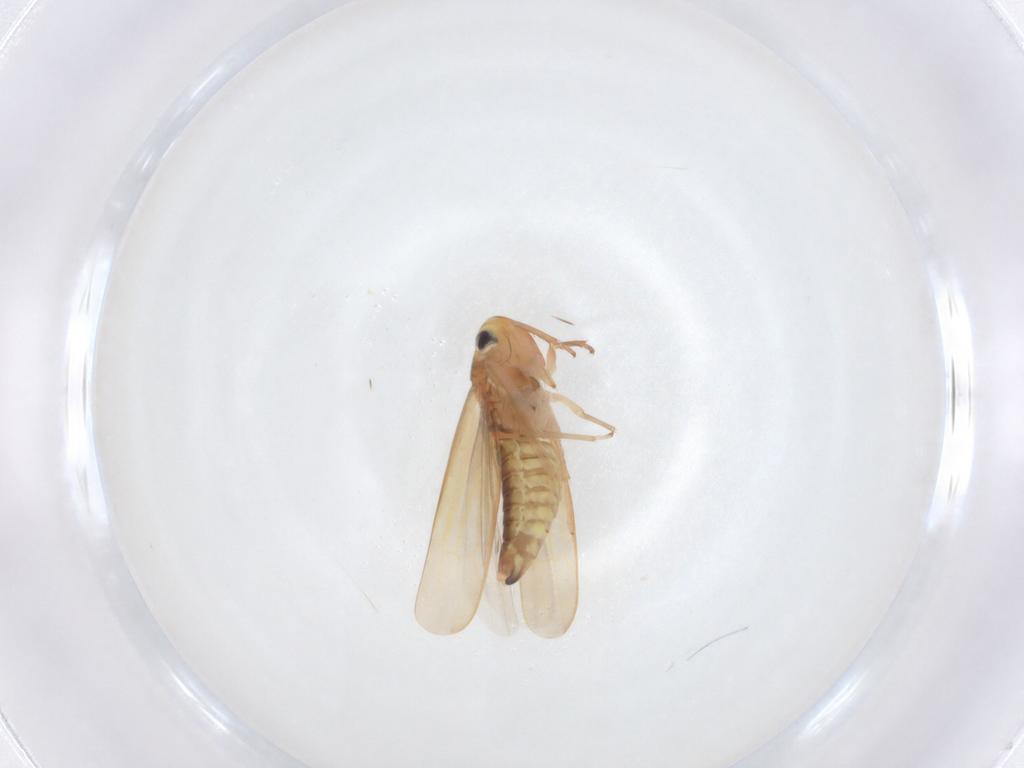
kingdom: Animalia
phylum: Arthropoda
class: Insecta
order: Hemiptera
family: Cicadellidae
